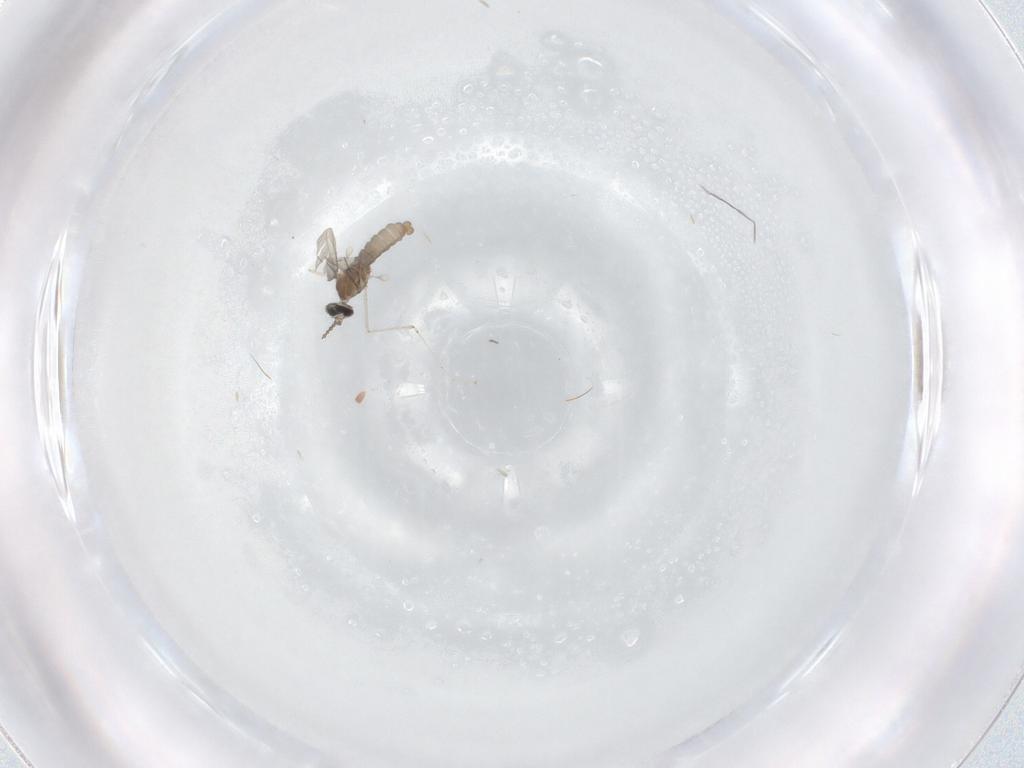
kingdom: Animalia
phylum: Arthropoda
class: Insecta
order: Diptera
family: Cecidomyiidae
